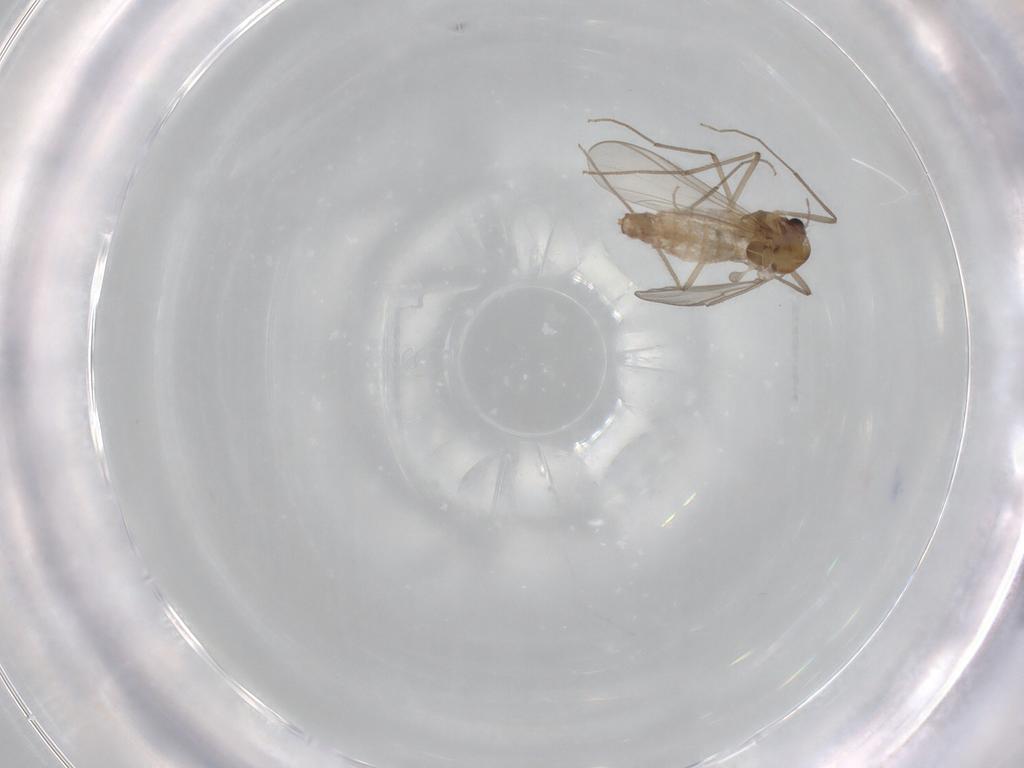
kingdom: Animalia
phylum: Arthropoda
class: Insecta
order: Diptera
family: Chironomidae
